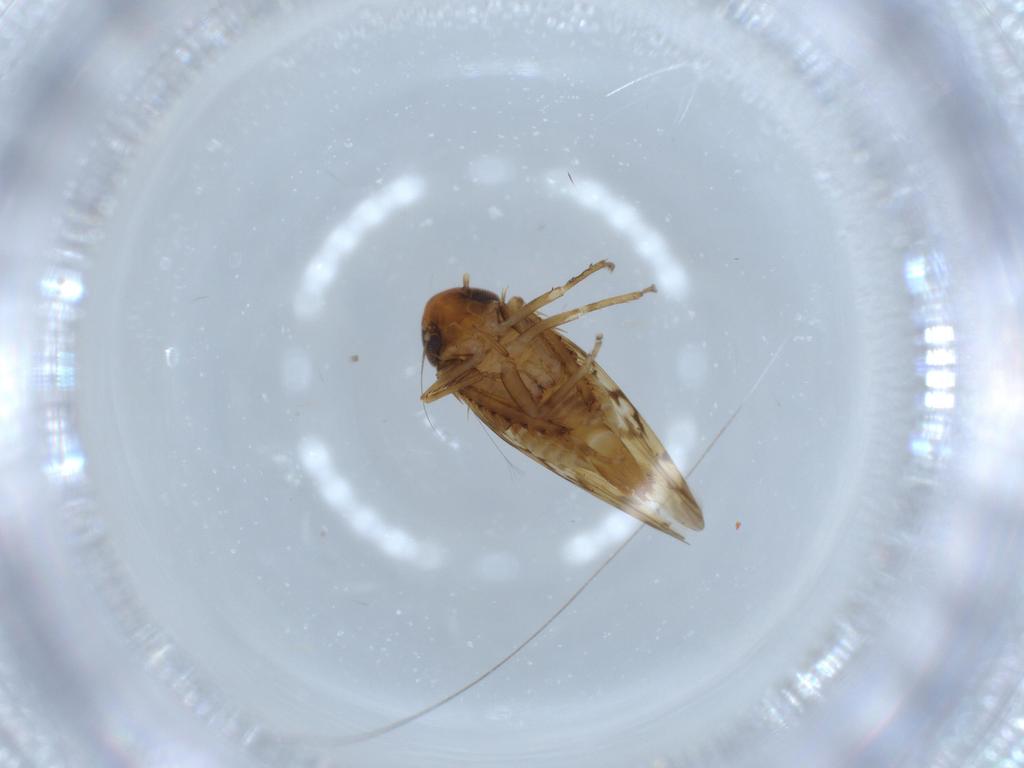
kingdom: Animalia
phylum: Arthropoda
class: Insecta
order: Hemiptera
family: Cicadellidae
